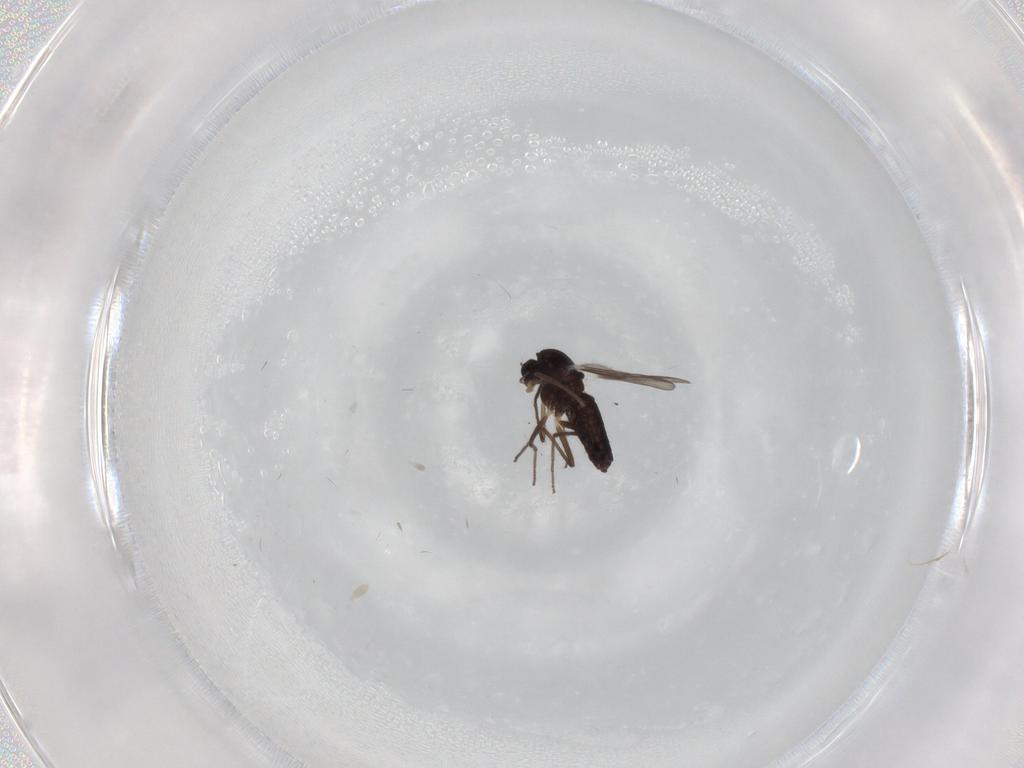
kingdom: Animalia
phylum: Arthropoda
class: Insecta
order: Diptera
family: Phoridae
